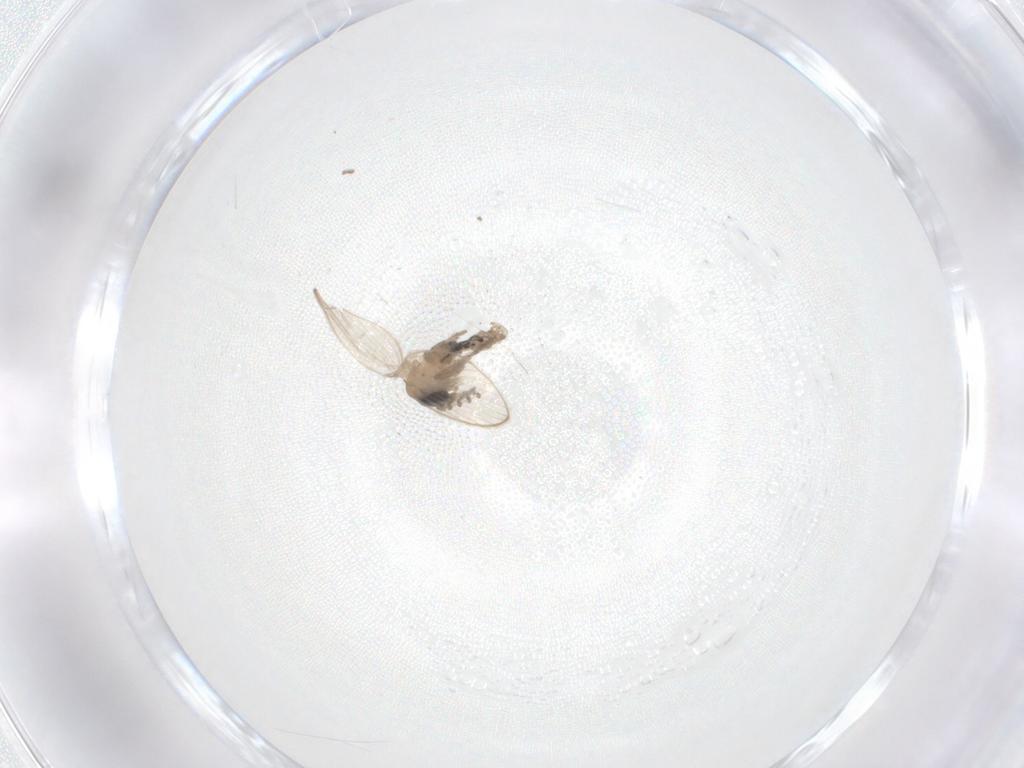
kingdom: Animalia
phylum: Arthropoda
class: Insecta
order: Diptera
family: Psychodidae
